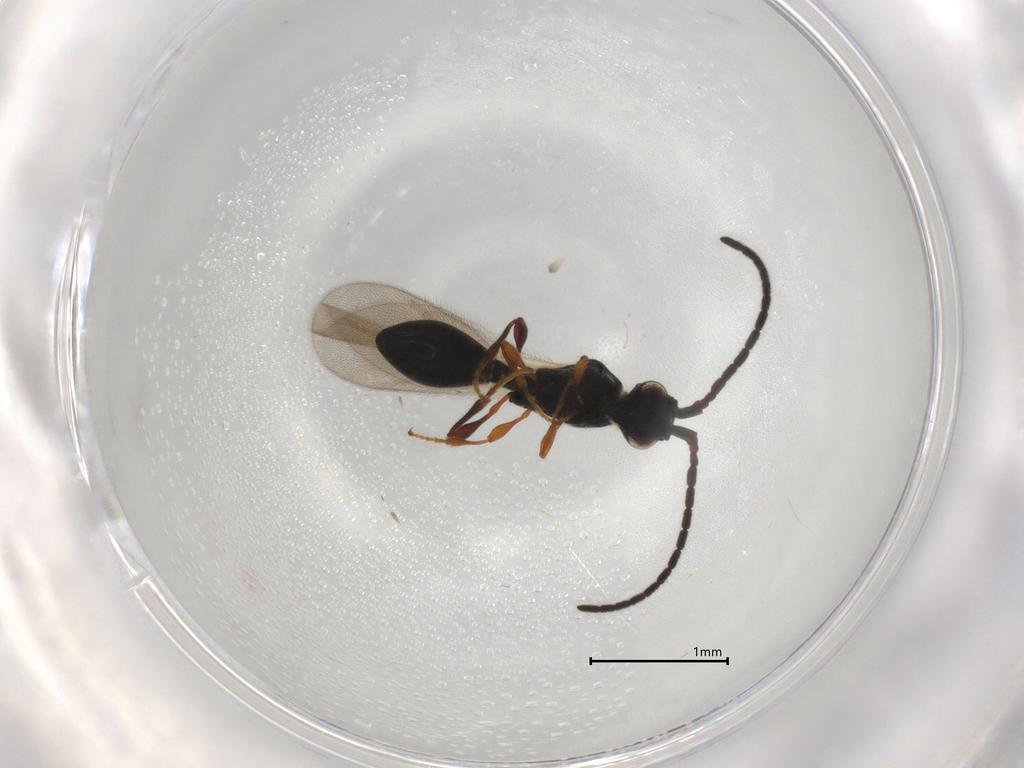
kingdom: Animalia
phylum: Arthropoda
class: Insecta
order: Hymenoptera
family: Diapriidae
